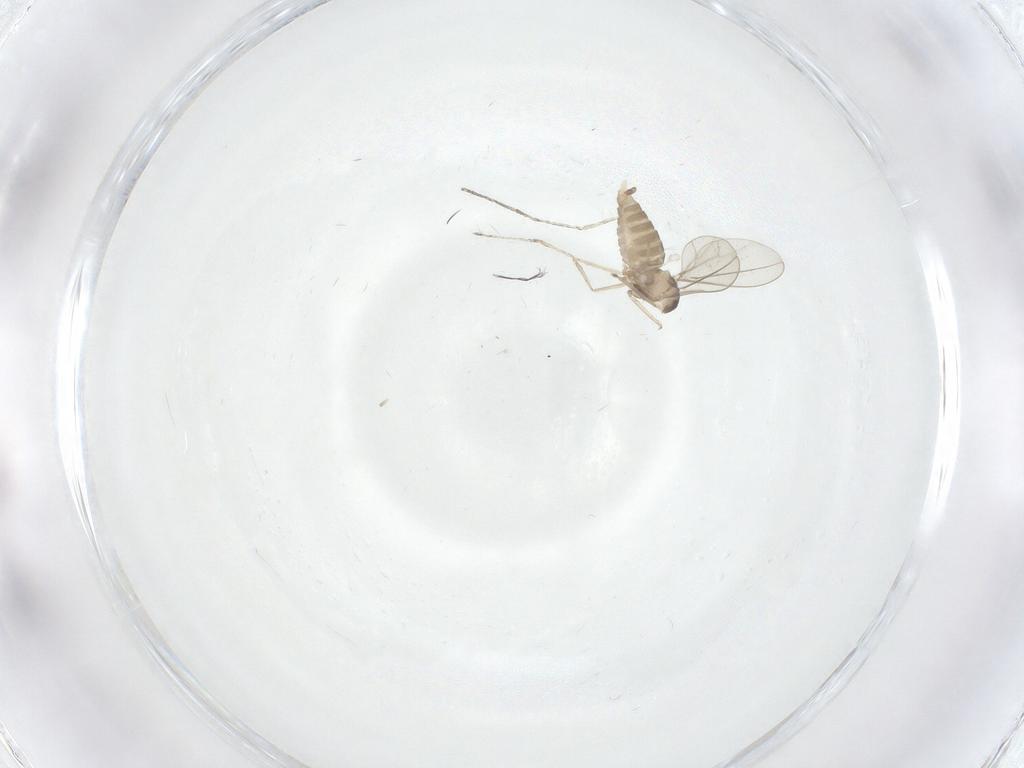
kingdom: Animalia
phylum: Arthropoda
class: Insecta
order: Diptera
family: Cecidomyiidae
